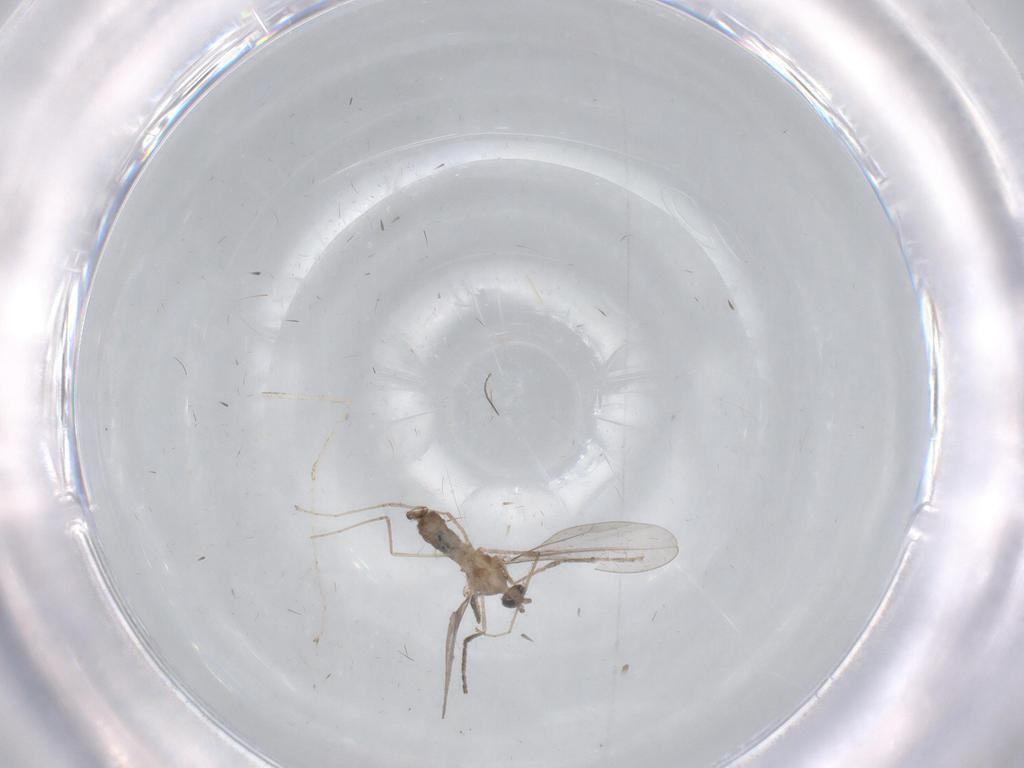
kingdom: Animalia
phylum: Arthropoda
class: Insecta
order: Diptera
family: Cecidomyiidae
